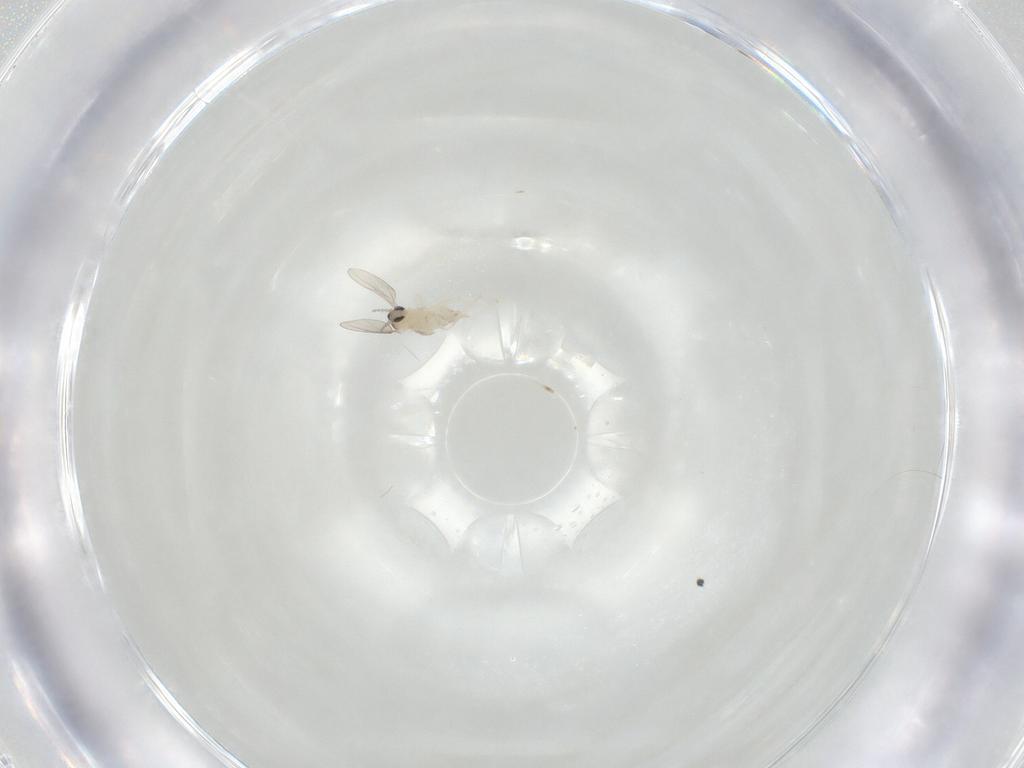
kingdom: Animalia
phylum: Arthropoda
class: Insecta
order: Diptera
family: Cecidomyiidae
